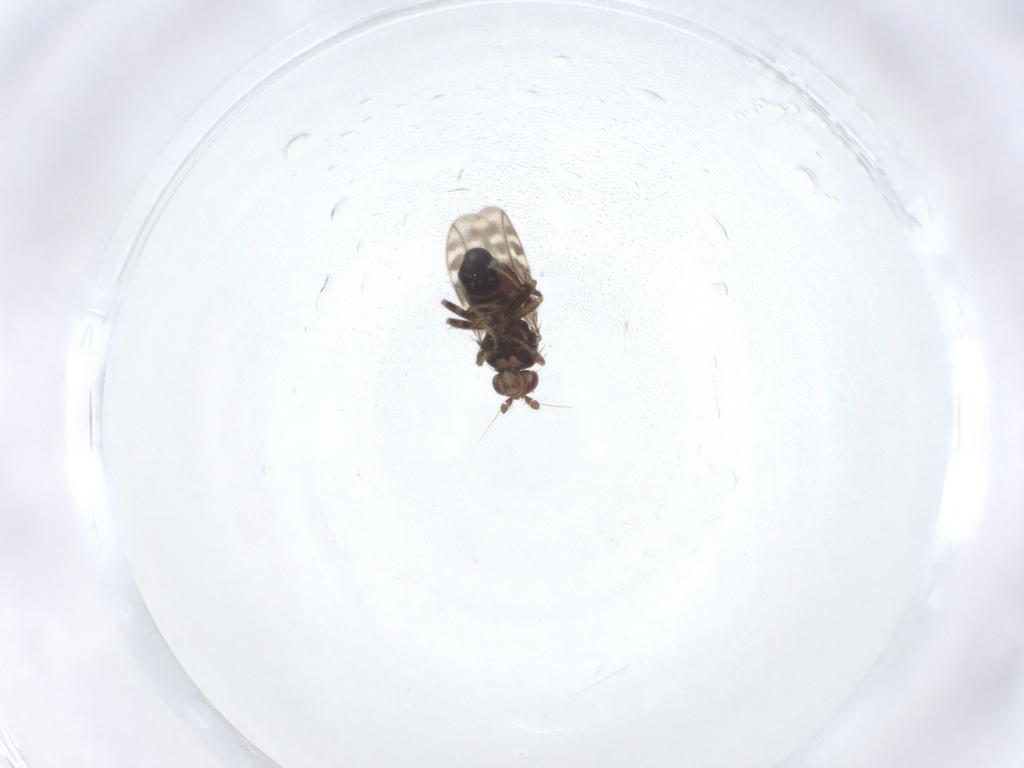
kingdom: Animalia
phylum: Arthropoda
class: Insecta
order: Diptera
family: Sphaeroceridae
